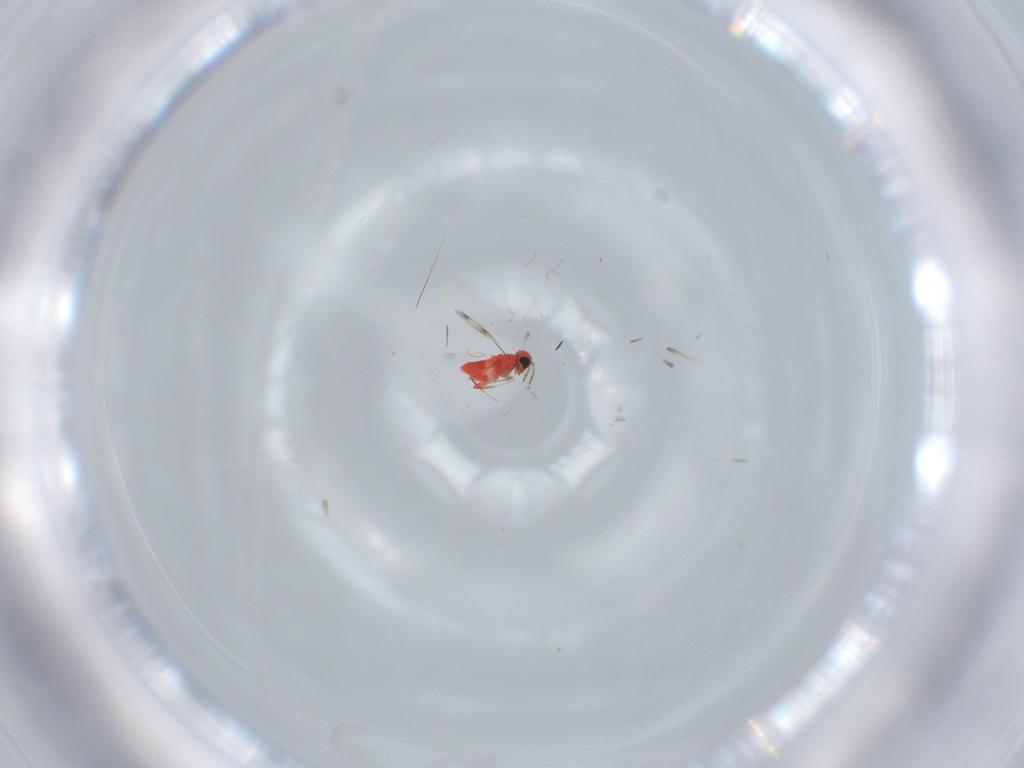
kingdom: Animalia
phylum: Arthropoda
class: Insecta
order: Hymenoptera
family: Trichogrammatidae
